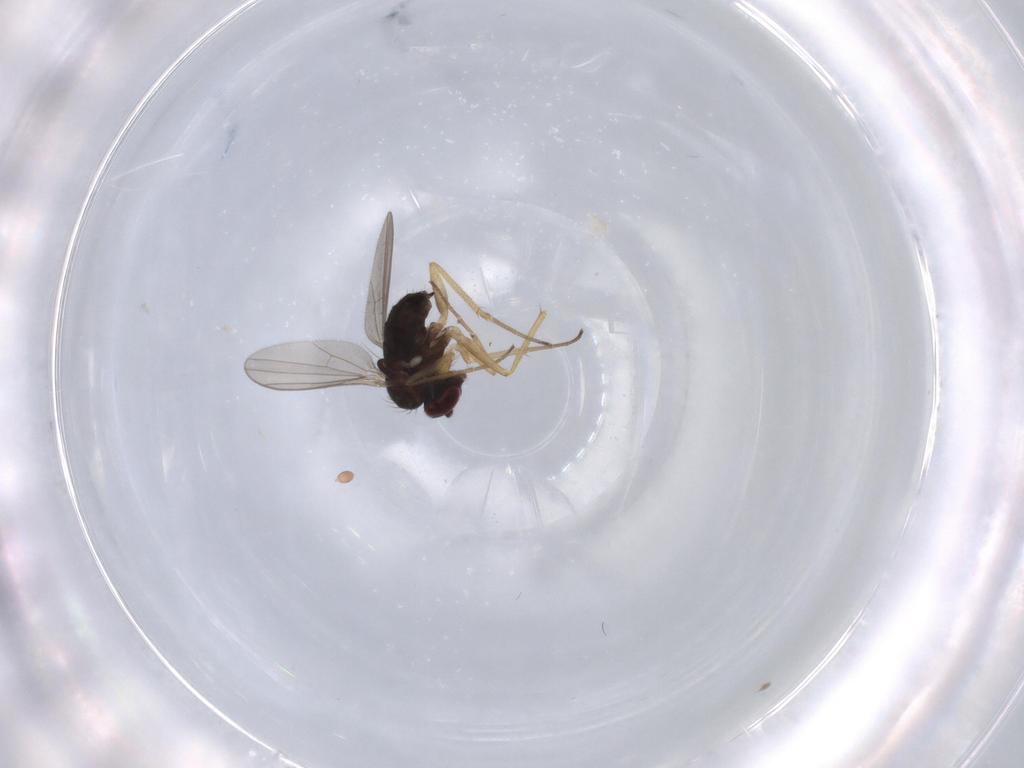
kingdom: Animalia
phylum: Arthropoda
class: Insecta
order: Diptera
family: Dolichopodidae
